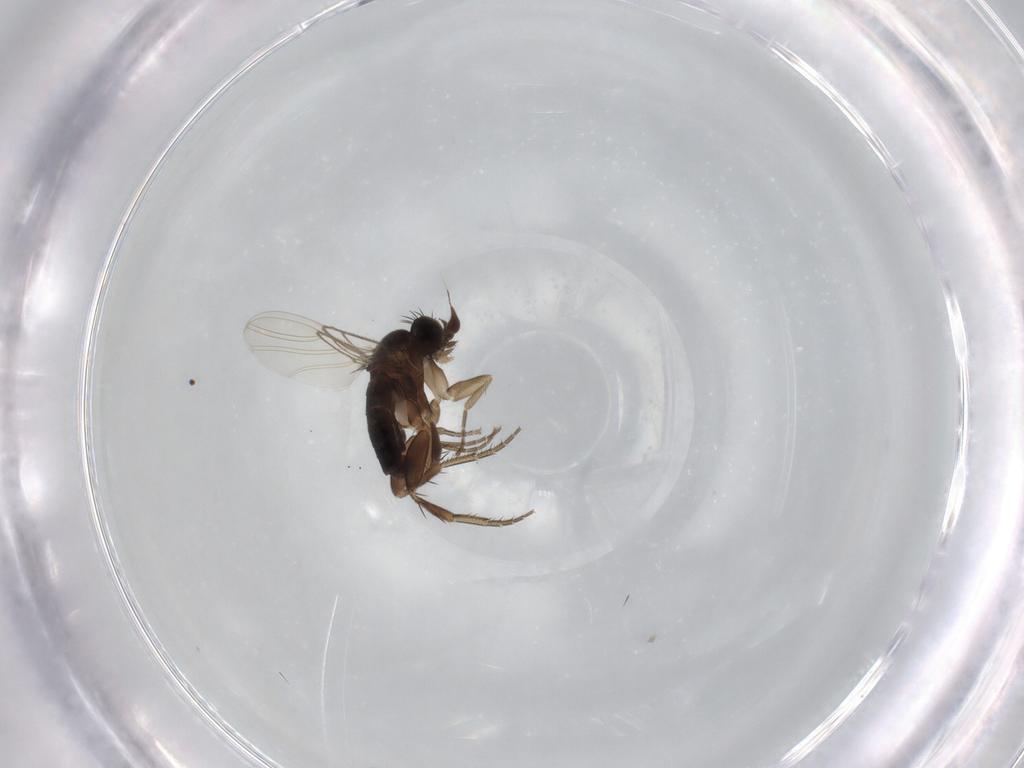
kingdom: Animalia
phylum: Arthropoda
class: Insecta
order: Diptera
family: Phoridae
